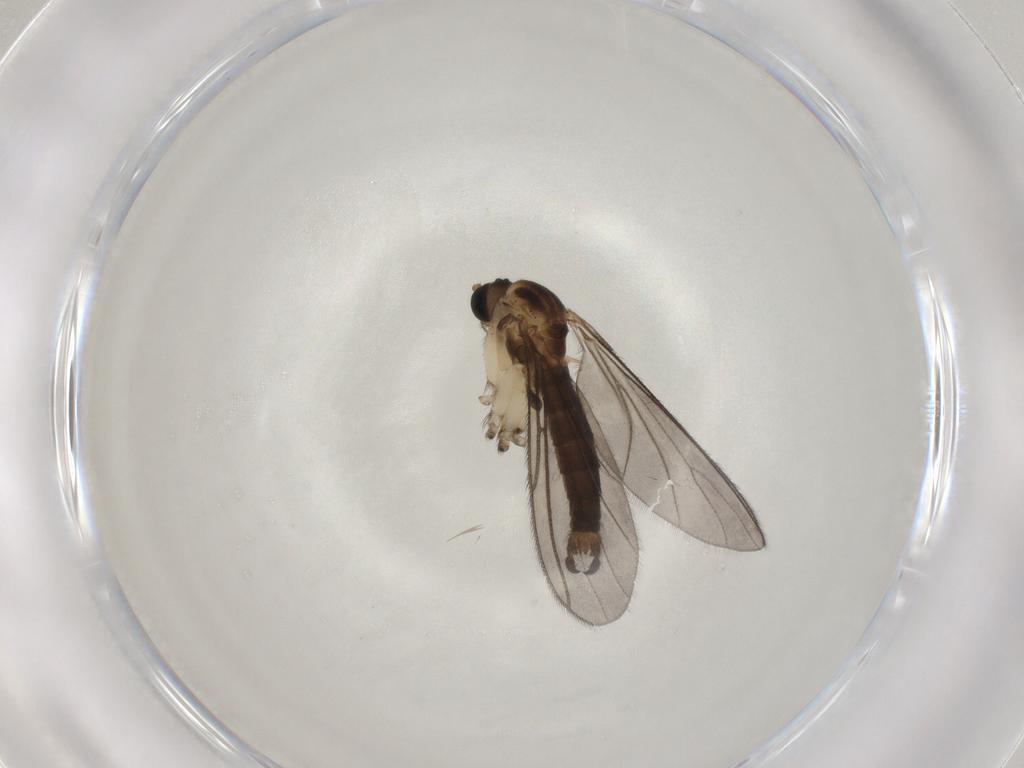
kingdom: Animalia
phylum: Arthropoda
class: Insecta
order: Diptera
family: Sciaridae
